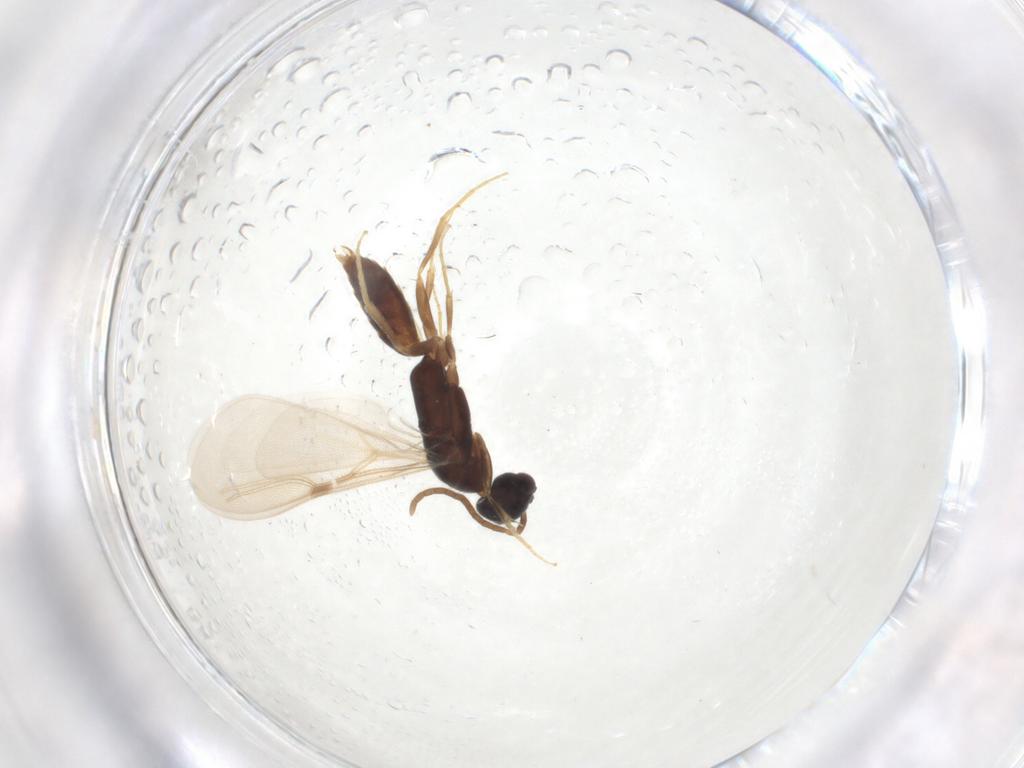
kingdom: Animalia
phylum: Arthropoda
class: Insecta
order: Hymenoptera
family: Bethylidae
